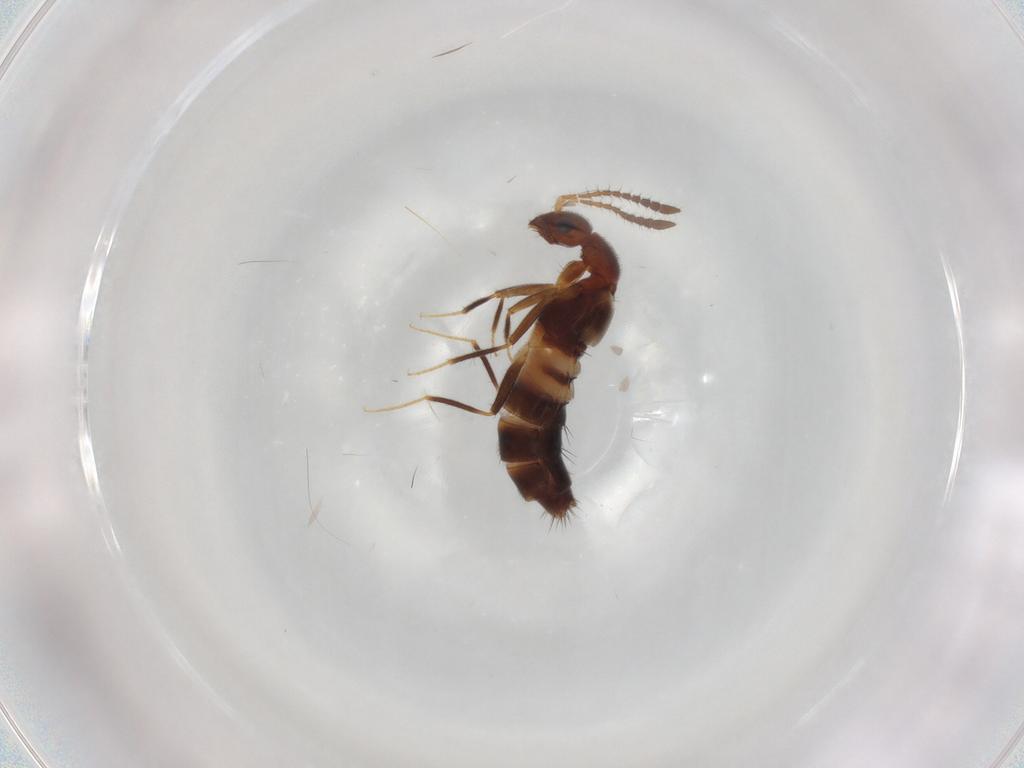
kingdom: Animalia
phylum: Arthropoda
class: Insecta
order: Coleoptera
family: Staphylinidae
